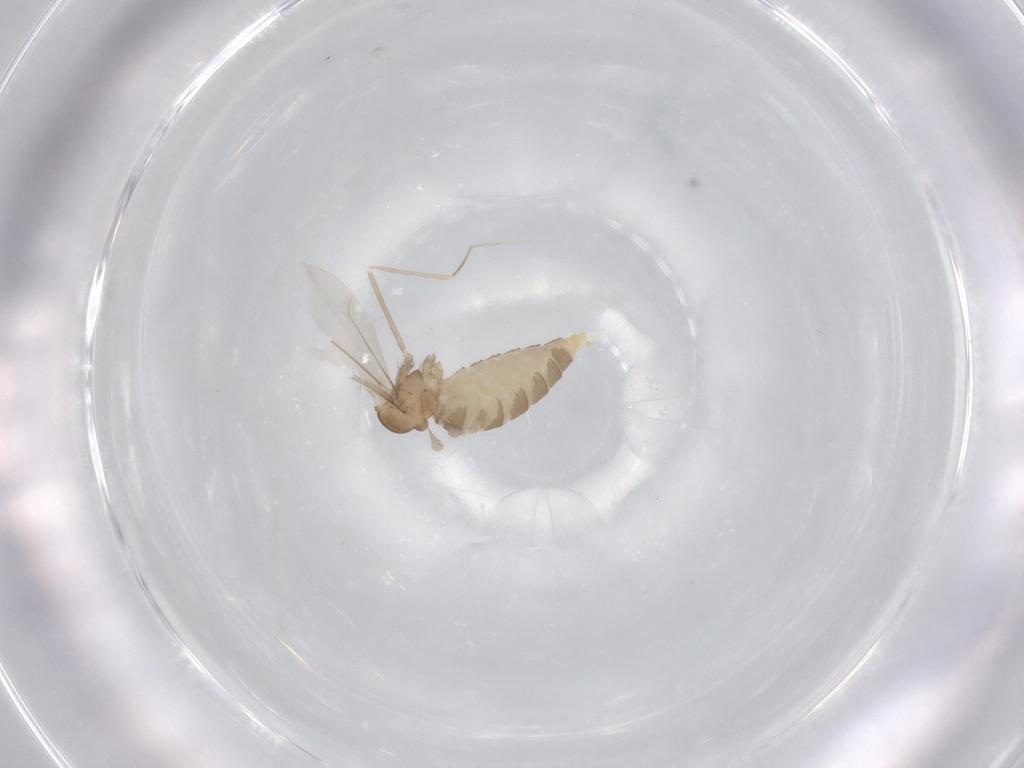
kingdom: Animalia
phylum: Arthropoda
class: Insecta
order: Diptera
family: Cecidomyiidae
